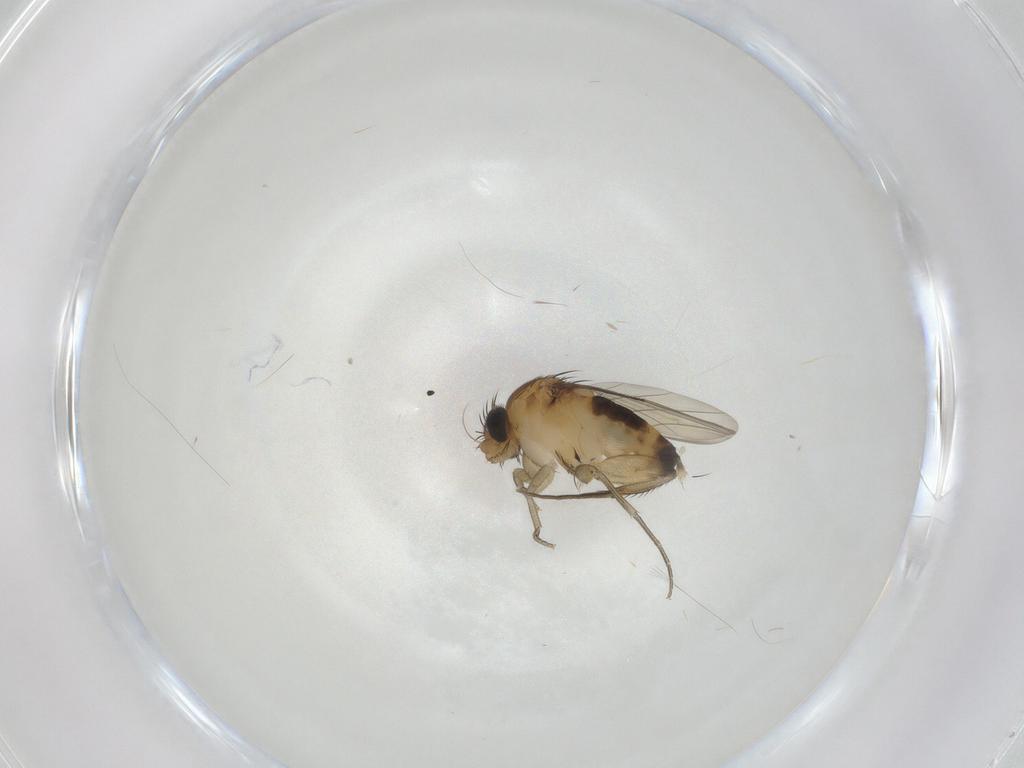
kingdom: Animalia
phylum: Arthropoda
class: Insecta
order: Diptera
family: Phoridae
